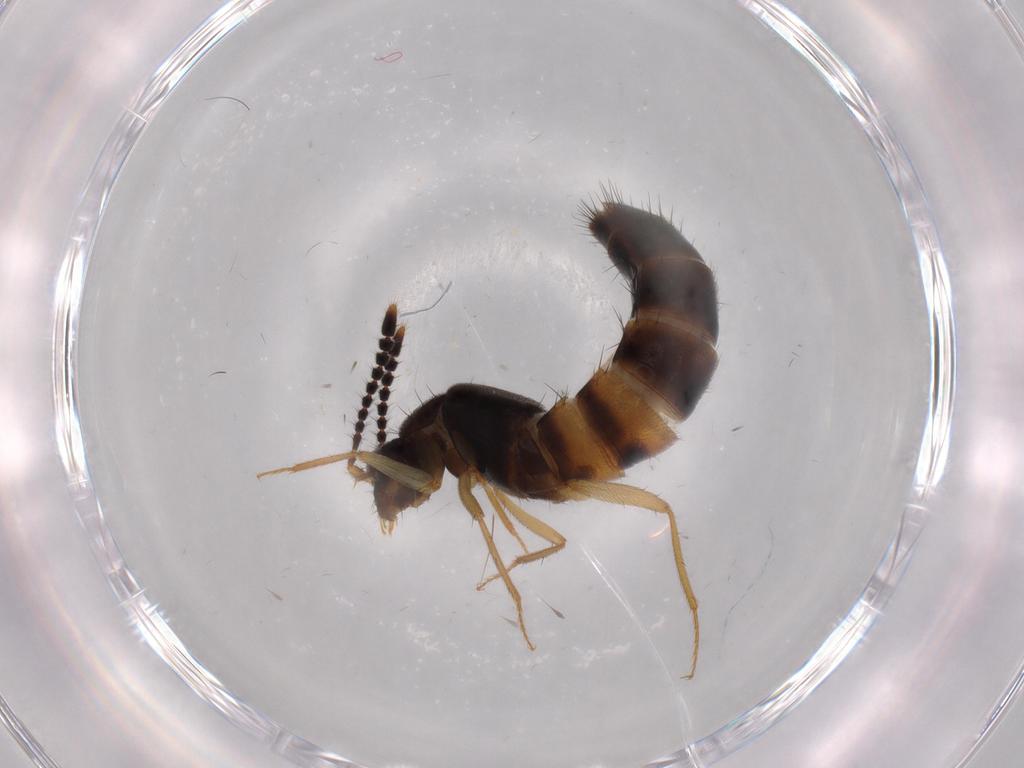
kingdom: Animalia
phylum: Arthropoda
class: Insecta
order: Coleoptera
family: Staphylinidae
